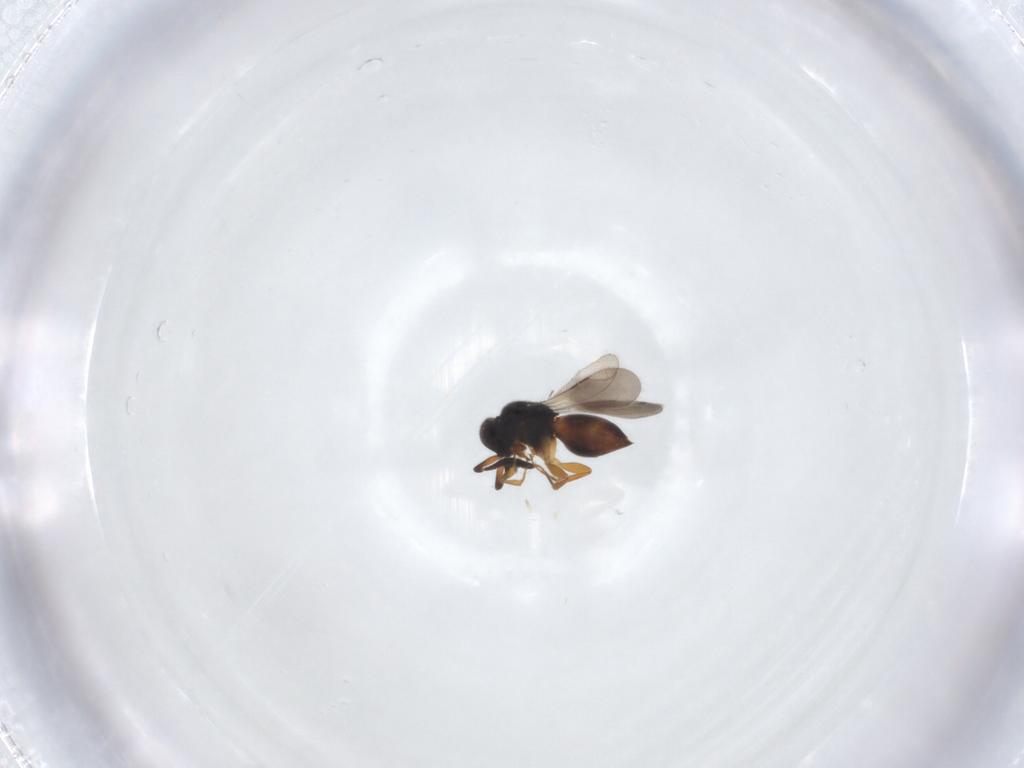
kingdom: Animalia
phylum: Arthropoda
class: Insecta
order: Hymenoptera
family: Ceraphronidae
